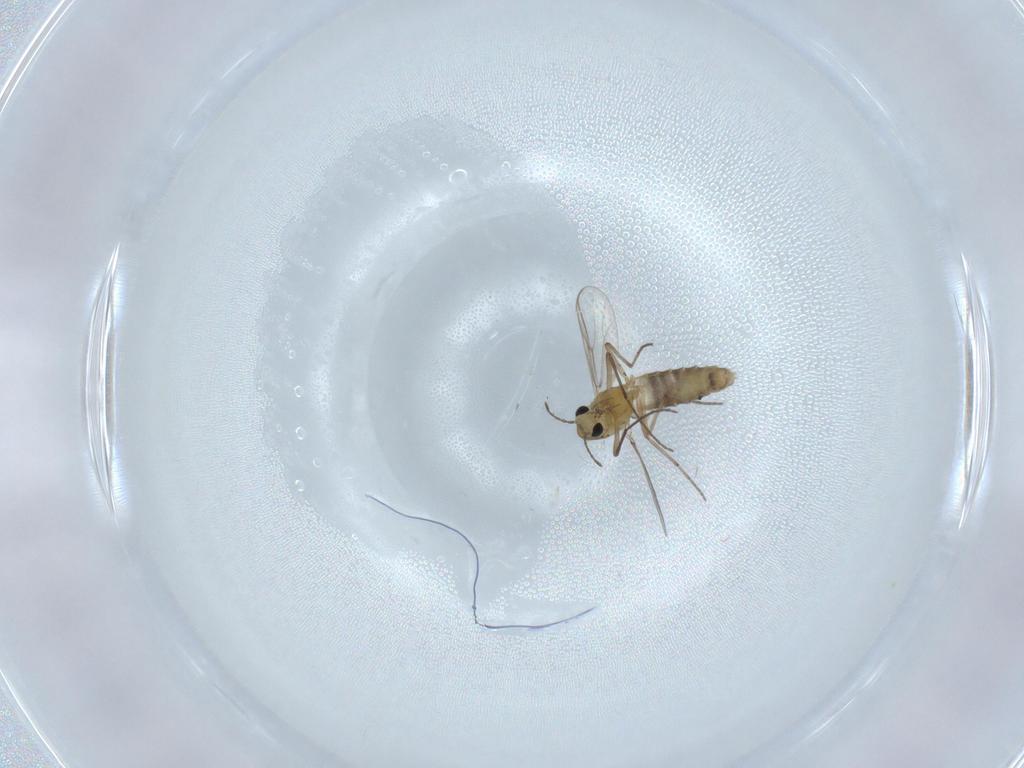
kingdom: Animalia
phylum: Arthropoda
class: Insecta
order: Diptera
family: Chironomidae
